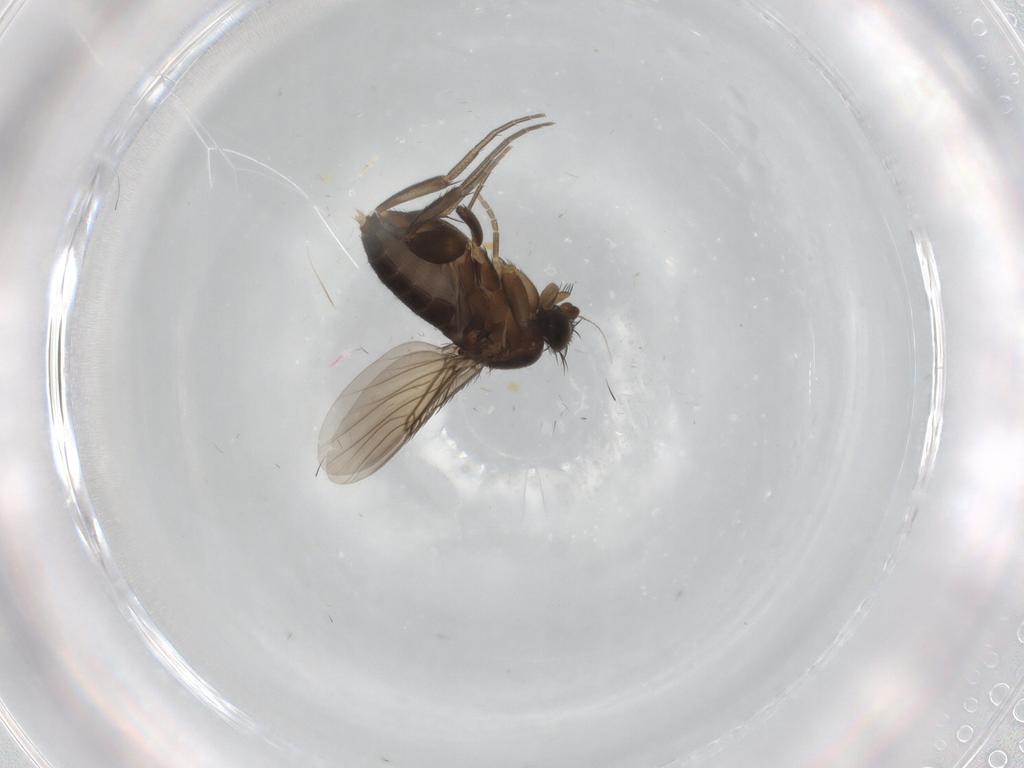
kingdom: Animalia
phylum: Arthropoda
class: Insecta
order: Diptera
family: Phoridae
